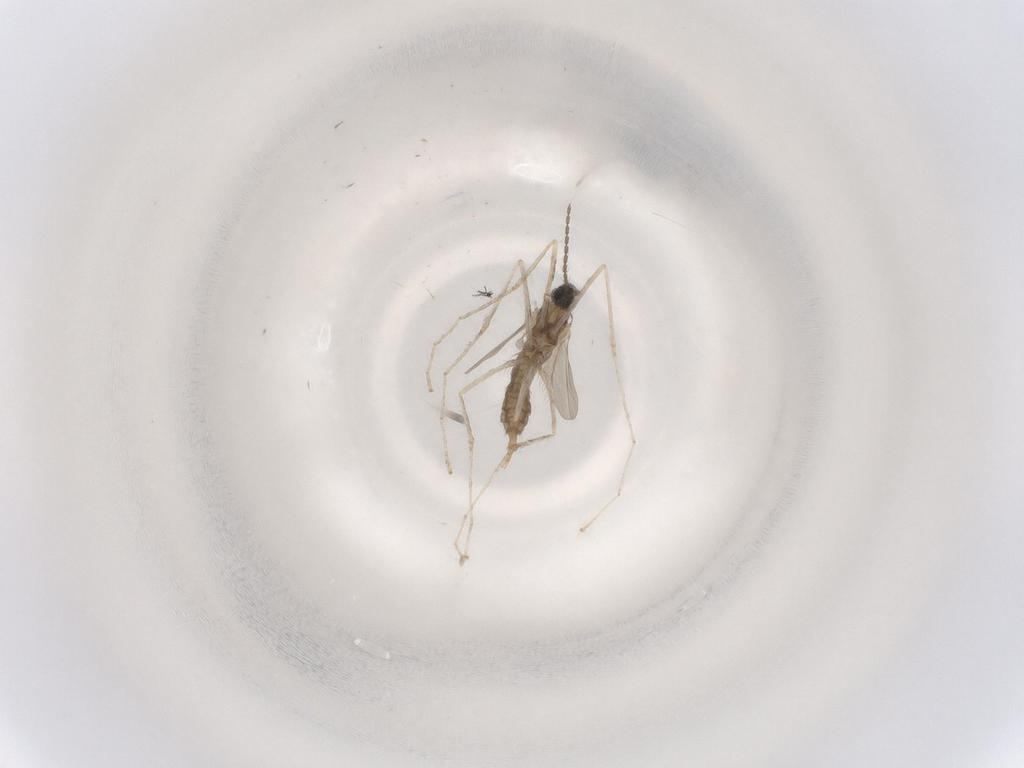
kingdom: Animalia
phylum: Arthropoda
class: Insecta
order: Diptera
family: Cecidomyiidae
